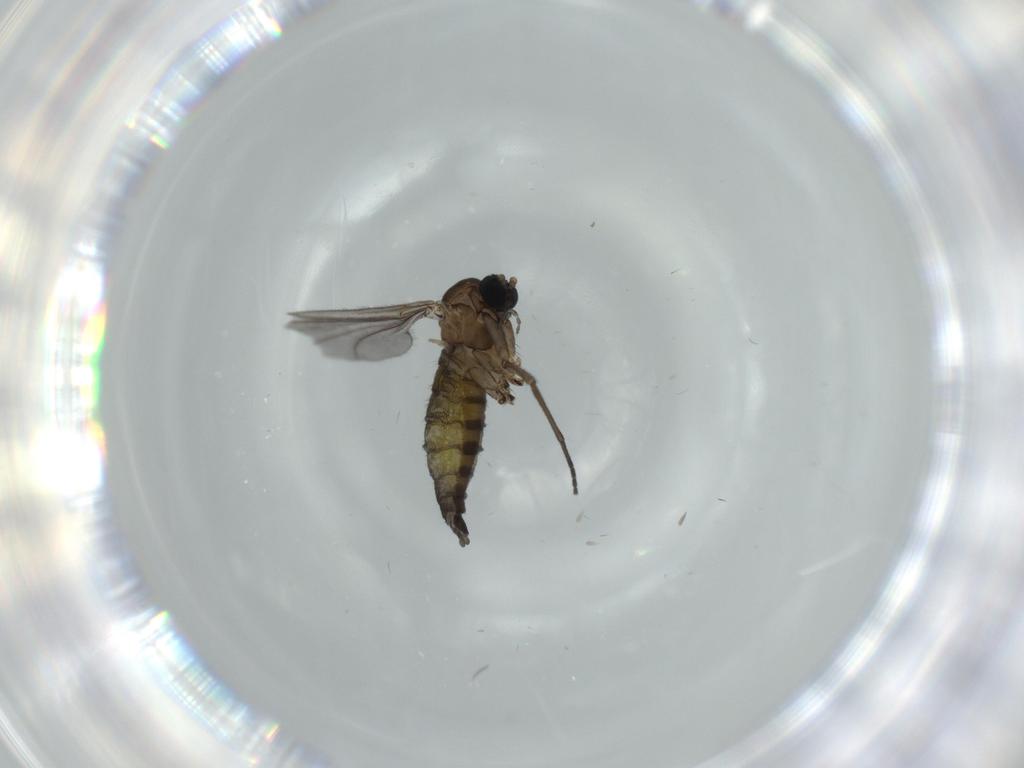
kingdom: Animalia
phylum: Arthropoda
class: Insecta
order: Diptera
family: Sciaridae
